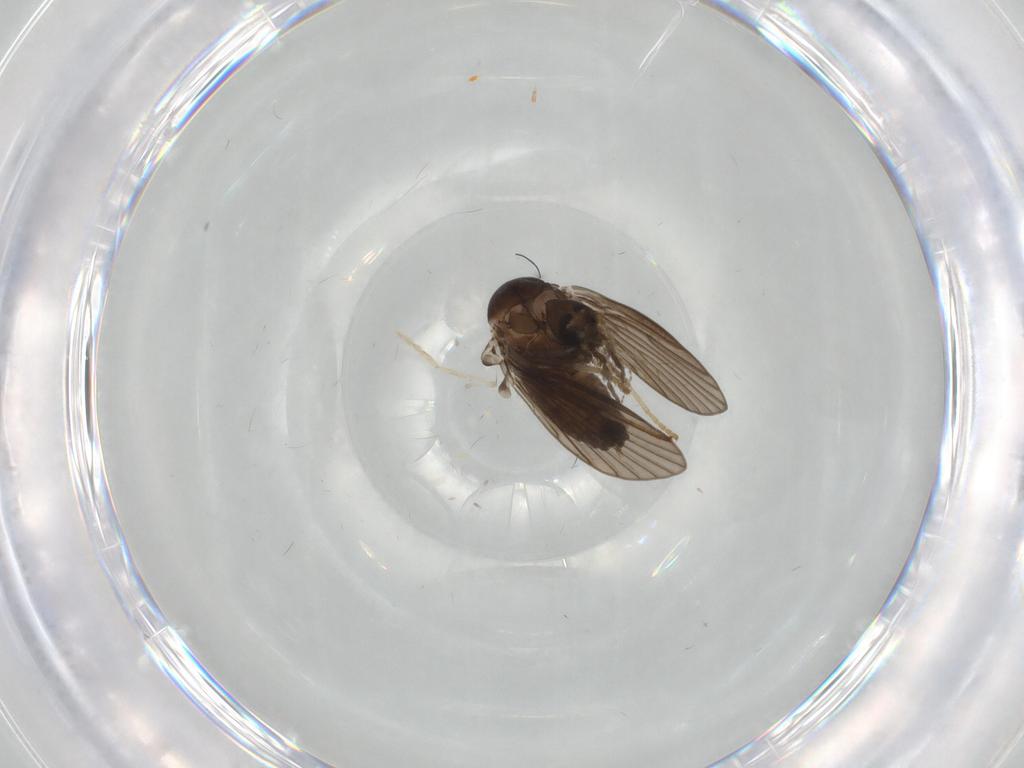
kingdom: Animalia
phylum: Arthropoda
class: Insecta
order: Diptera
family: Psychodidae
